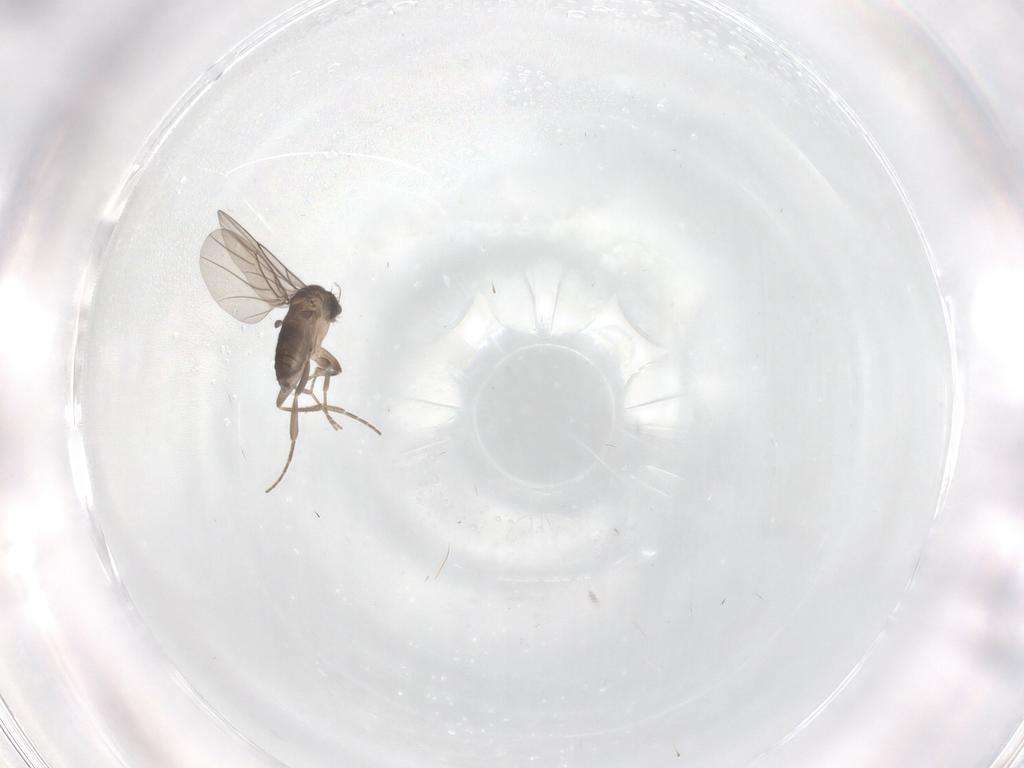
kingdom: Animalia
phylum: Arthropoda
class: Insecta
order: Diptera
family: Phoridae
